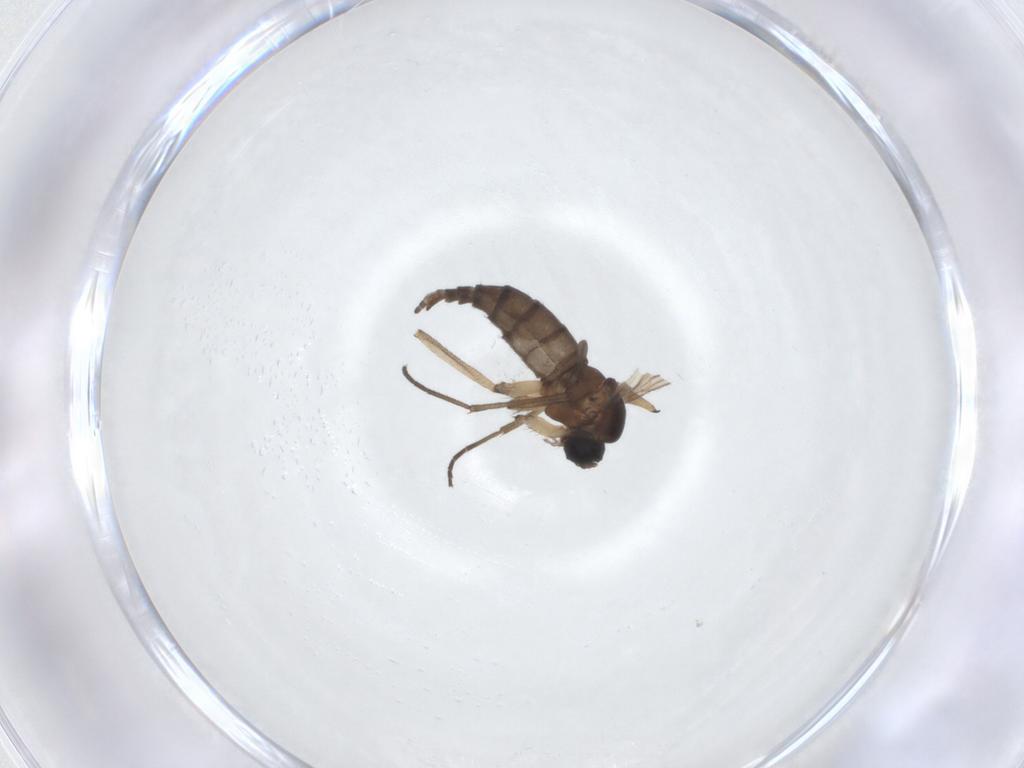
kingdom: Animalia
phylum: Arthropoda
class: Insecta
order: Diptera
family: Sciaridae
